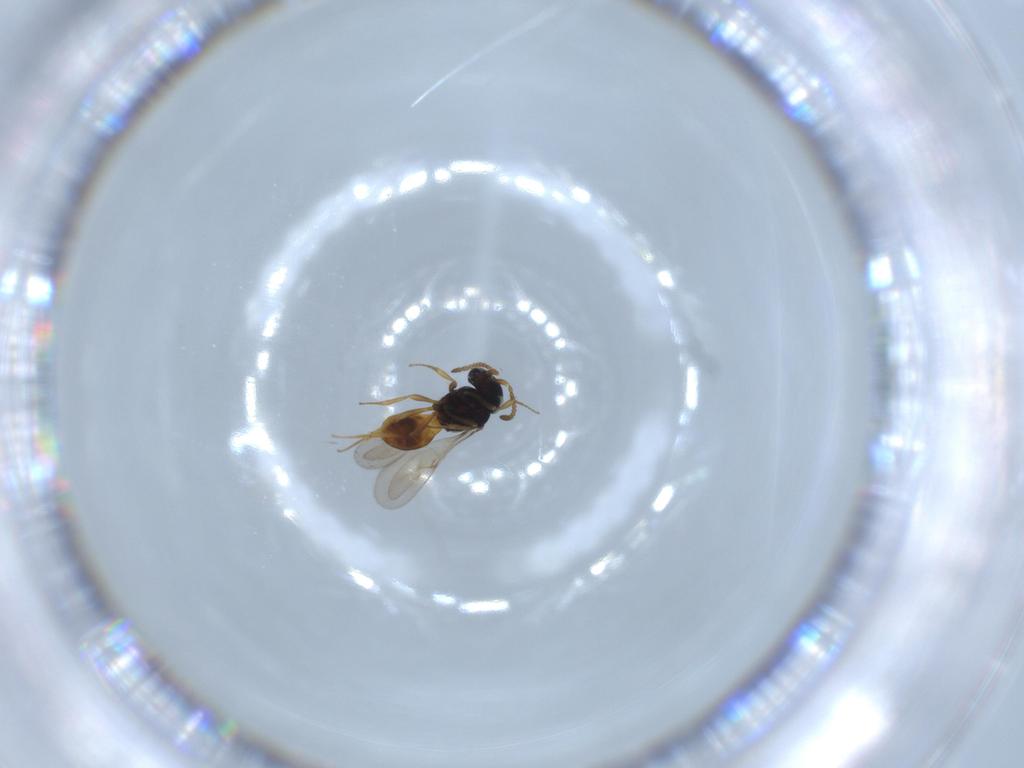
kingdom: Animalia
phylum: Arthropoda
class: Insecta
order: Hymenoptera
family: Scelionidae
